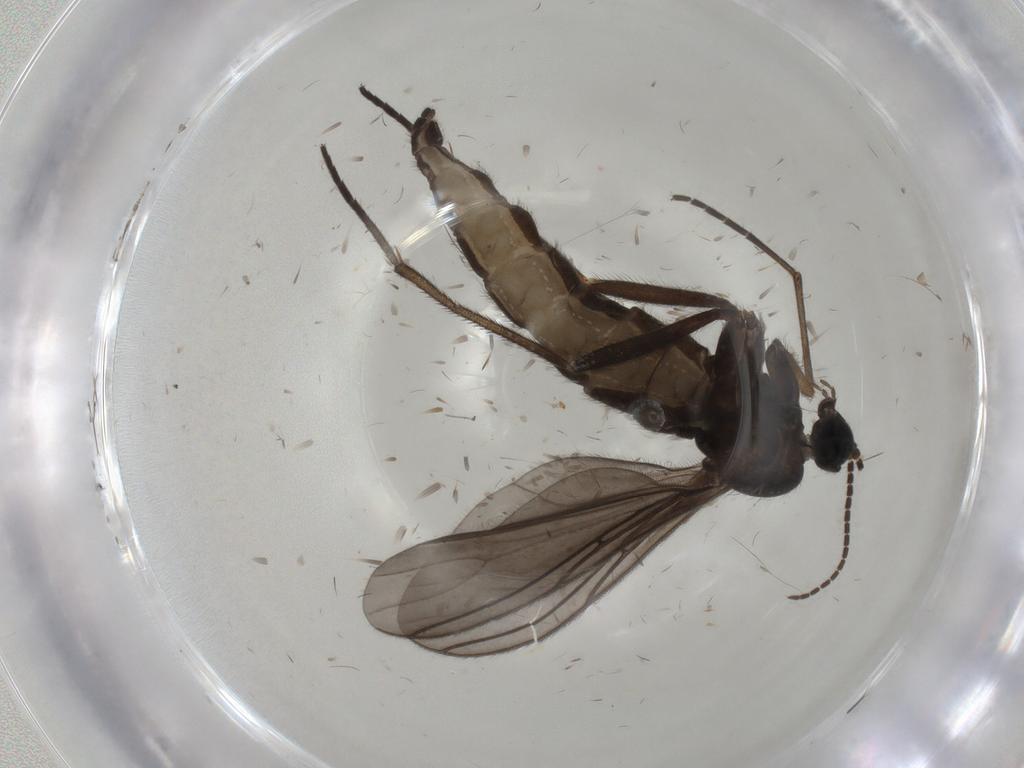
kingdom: Animalia
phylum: Arthropoda
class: Insecta
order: Diptera
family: Sciaridae
